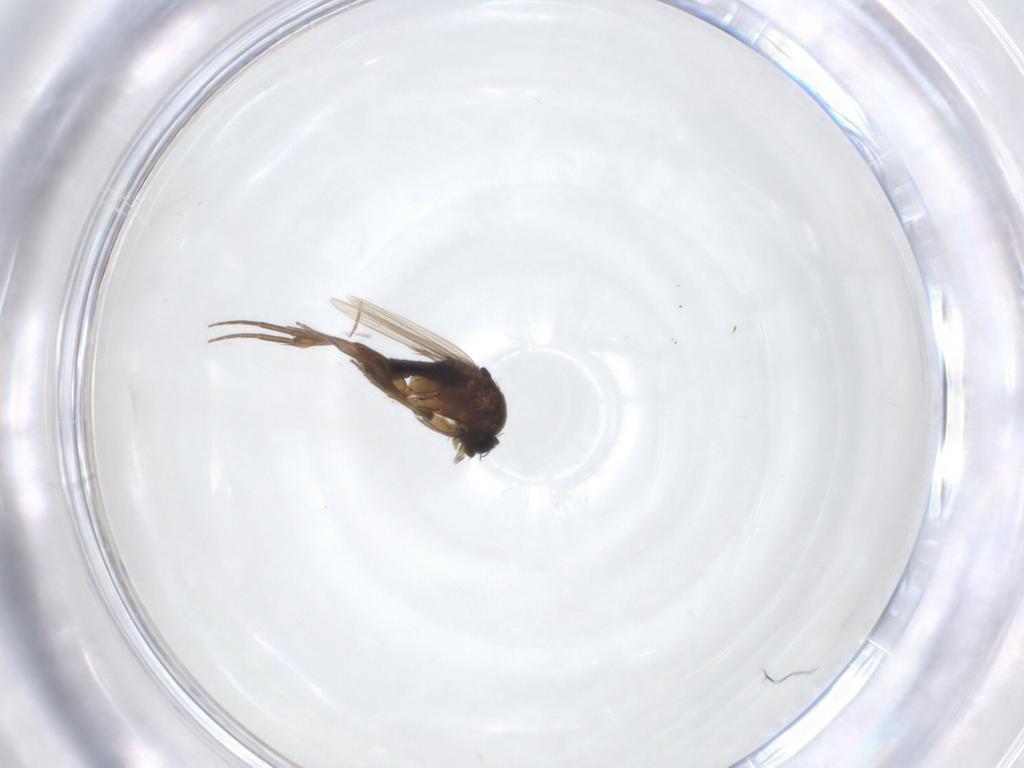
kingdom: Animalia
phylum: Arthropoda
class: Insecta
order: Diptera
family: Phoridae
